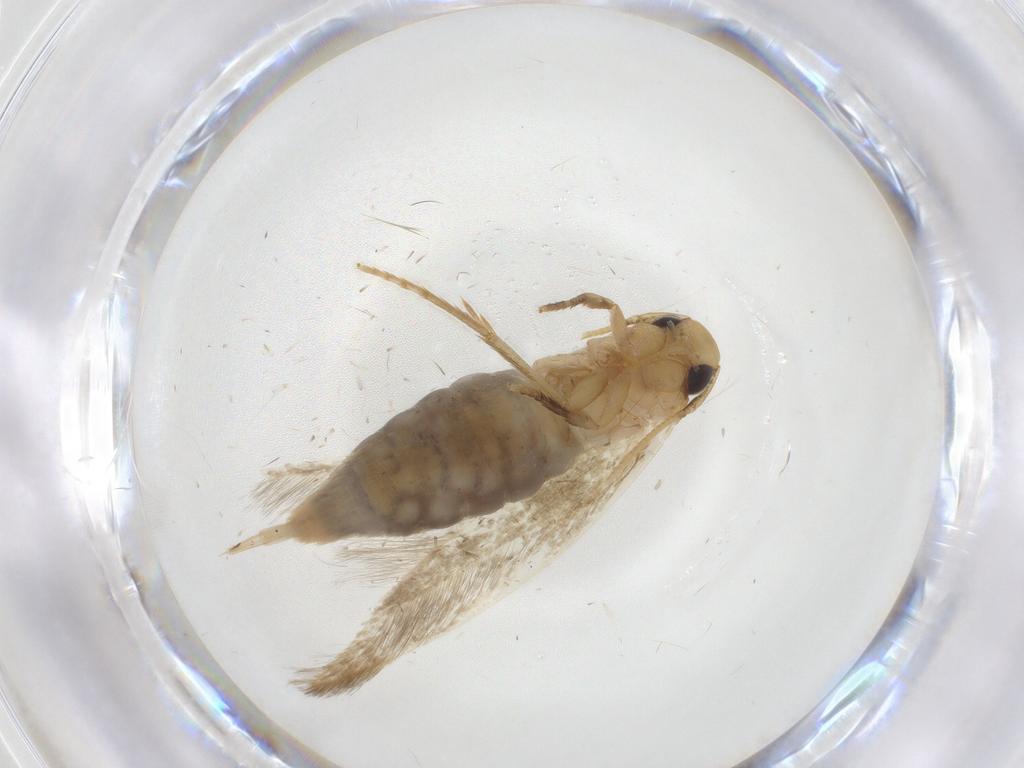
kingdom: Animalia
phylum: Arthropoda
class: Insecta
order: Lepidoptera
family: Tineidae
